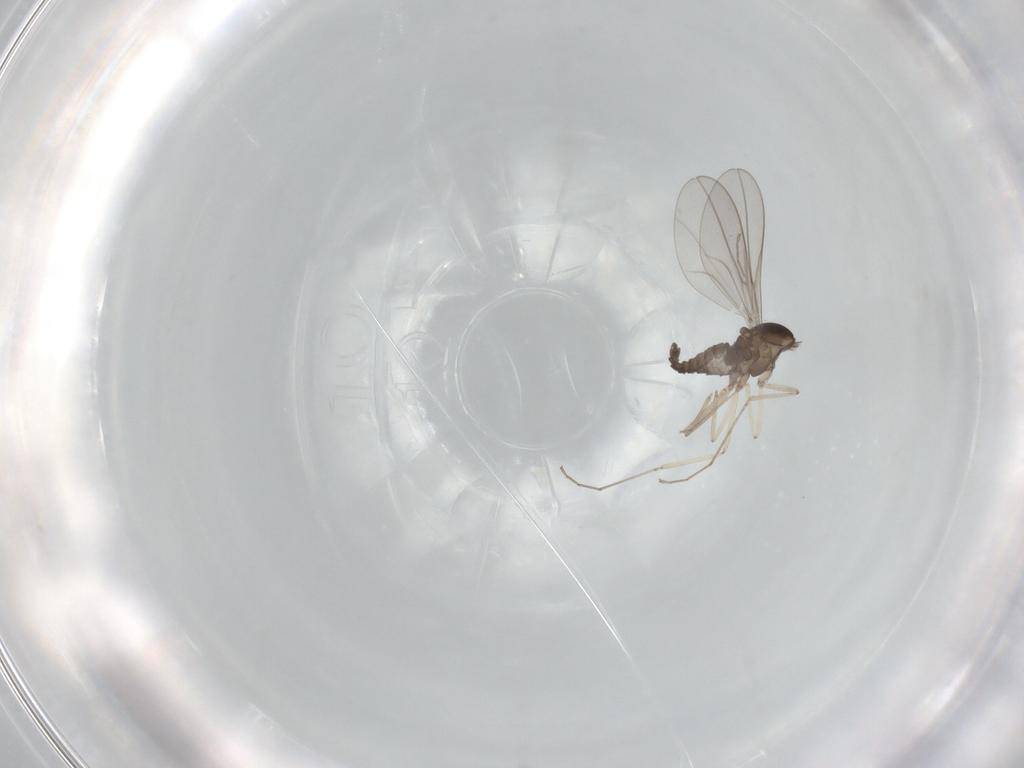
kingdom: Animalia
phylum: Arthropoda
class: Insecta
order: Diptera
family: Cecidomyiidae
